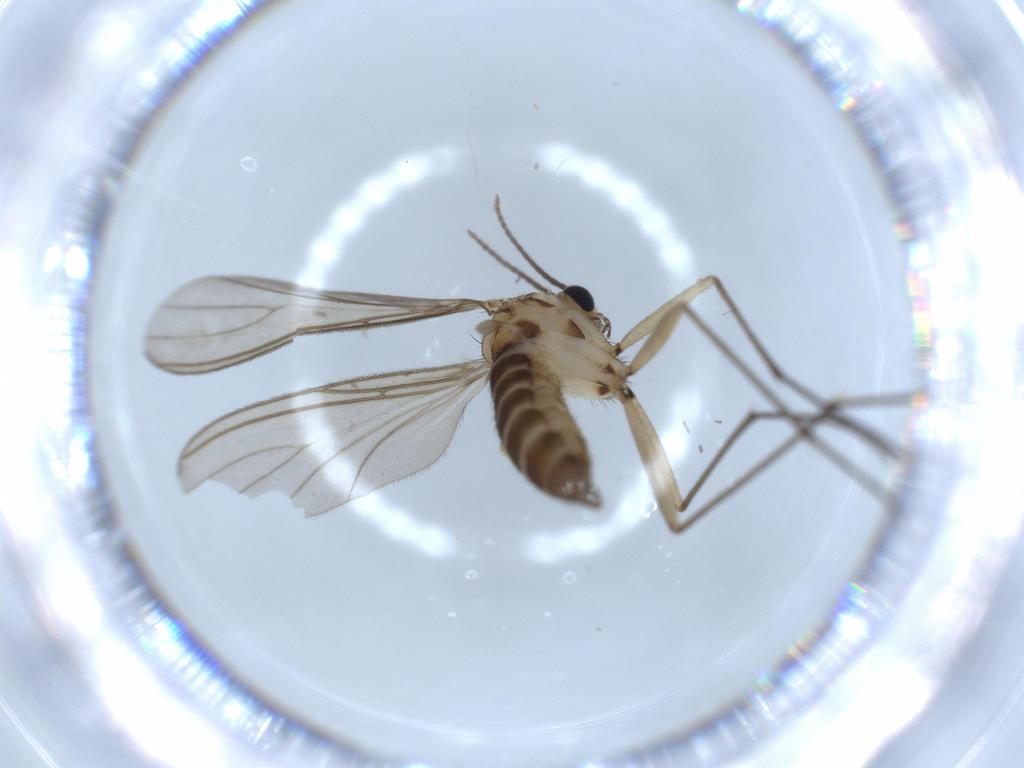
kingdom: Animalia
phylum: Arthropoda
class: Insecta
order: Diptera
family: Sciaridae
